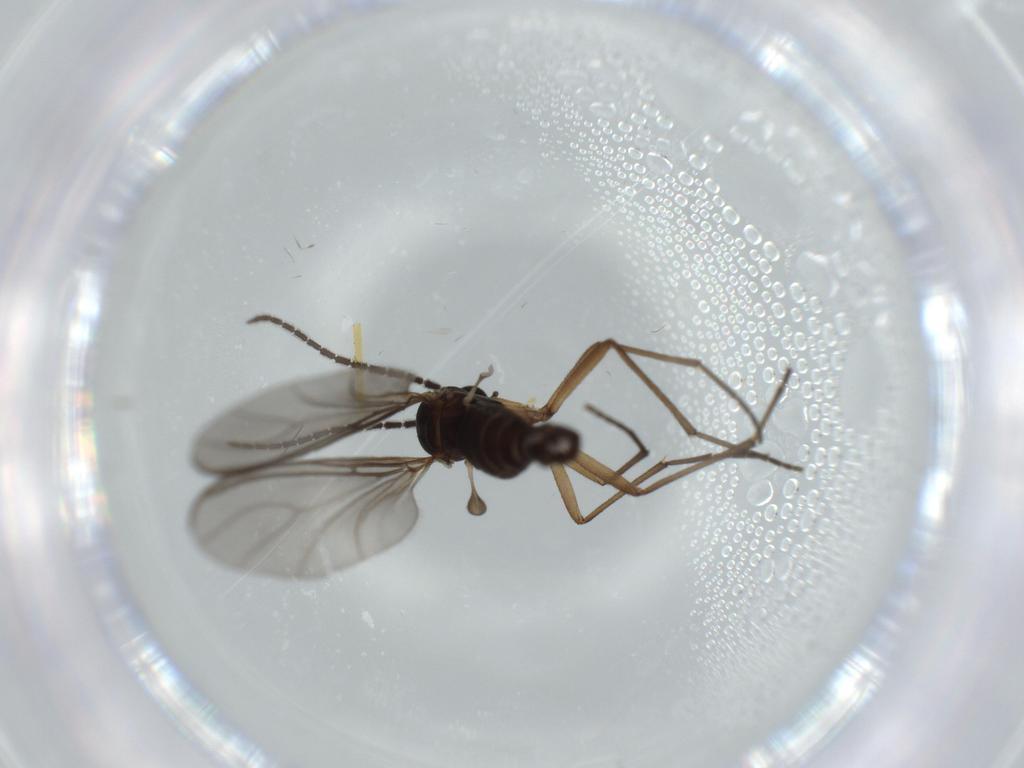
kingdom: Animalia
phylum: Arthropoda
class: Insecta
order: Diptera
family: Sciaridae
